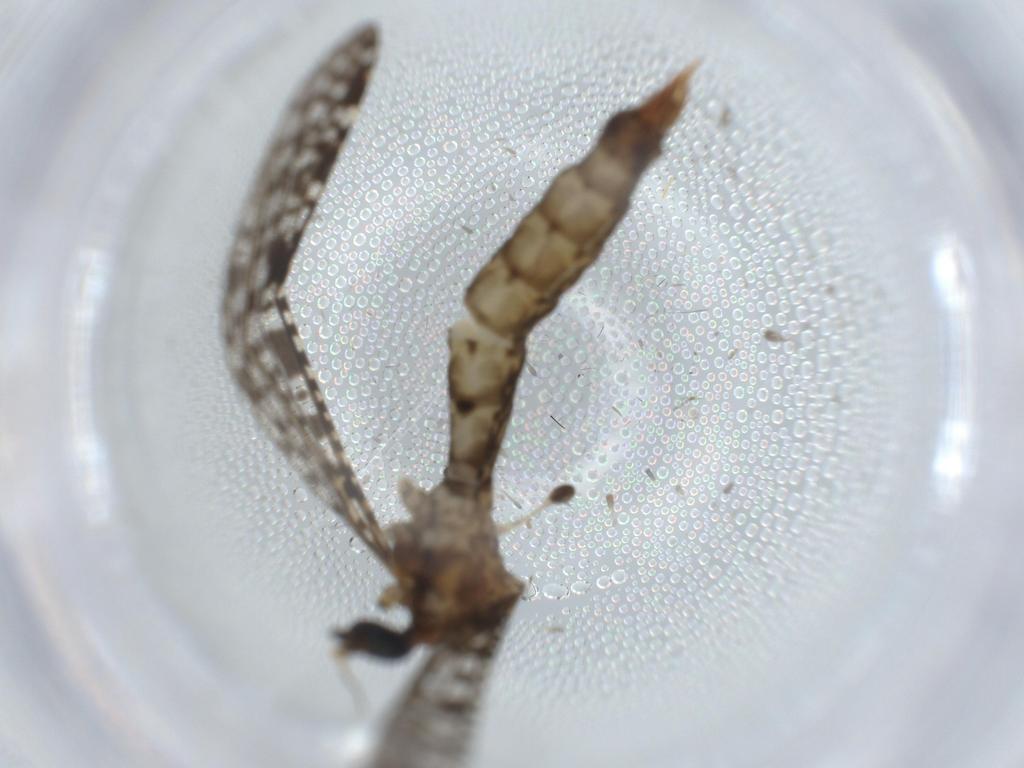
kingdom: Animalia
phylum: Arthropoda
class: Insecta
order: Diptera
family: Limoniidae
